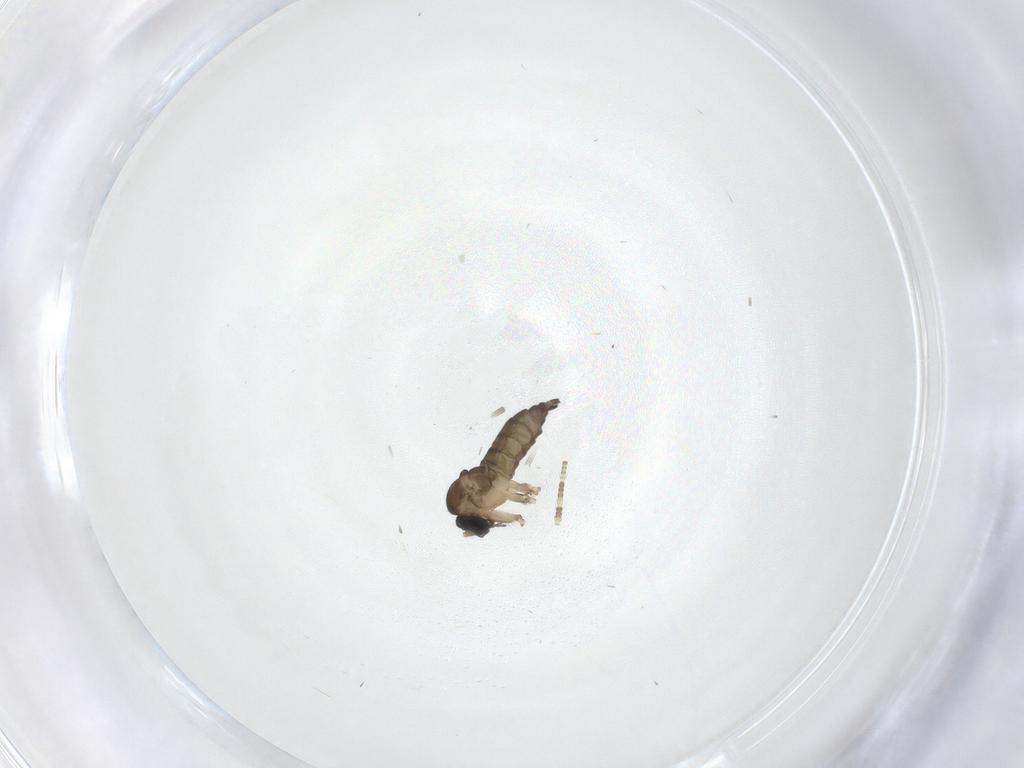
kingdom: Animalia
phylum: Arthropoda
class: Insecta
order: Diptera
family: Sciaridae
